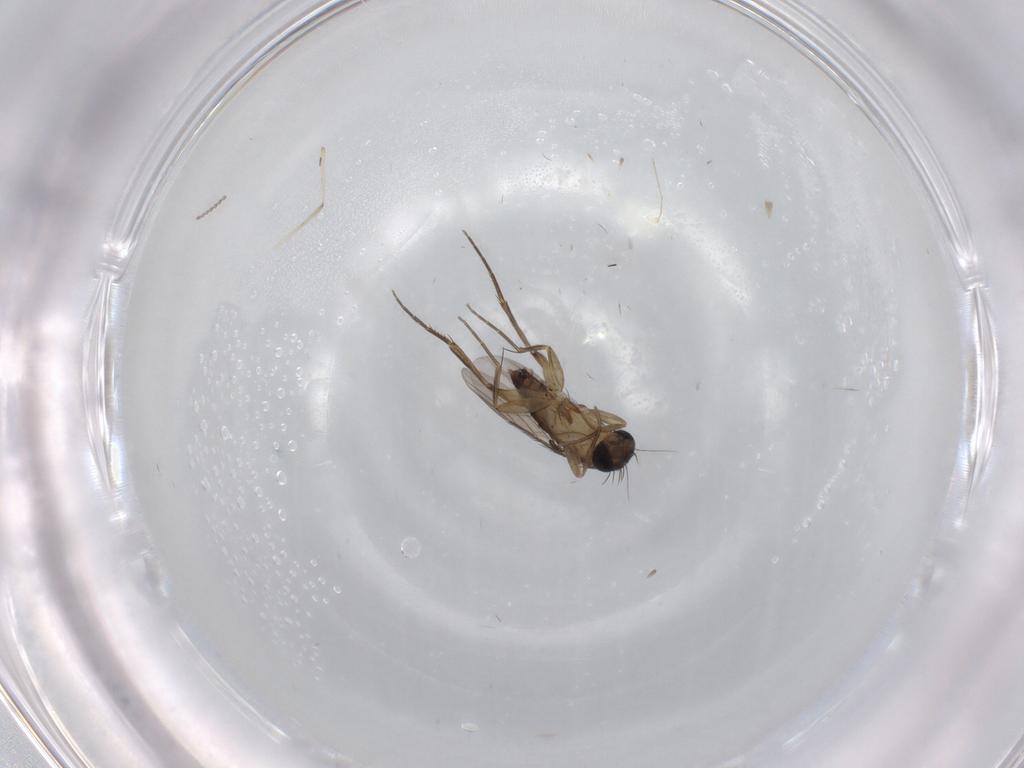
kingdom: Animalia
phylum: Arthropoda
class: Insecta
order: Diptera
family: Phoridae
